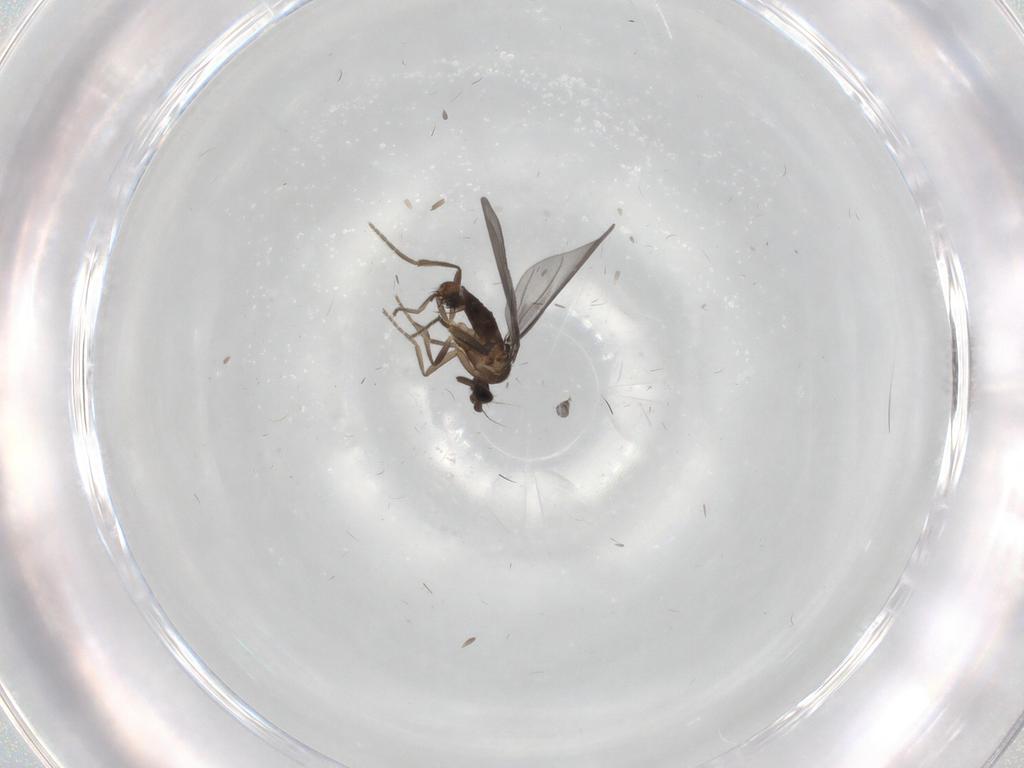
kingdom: Animalia
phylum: Arthropoda
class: Insecta
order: Diptera
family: Phoridae
